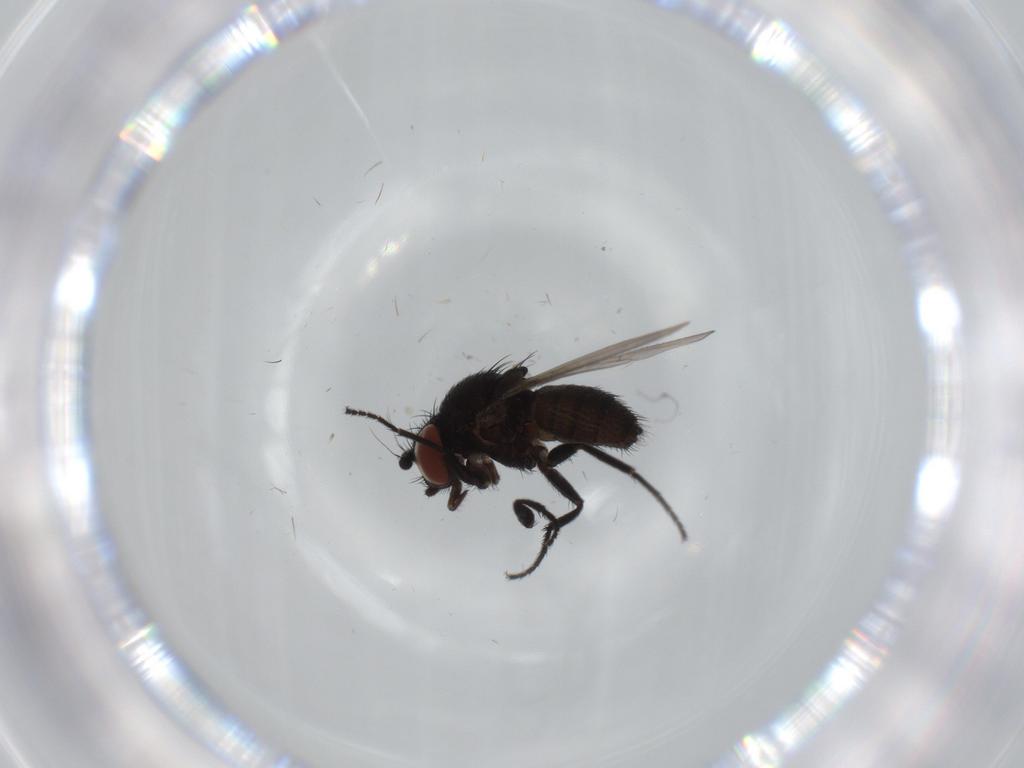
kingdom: Animalia
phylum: Arthropoda
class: Insecta
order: Diptera
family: Milichiidae
